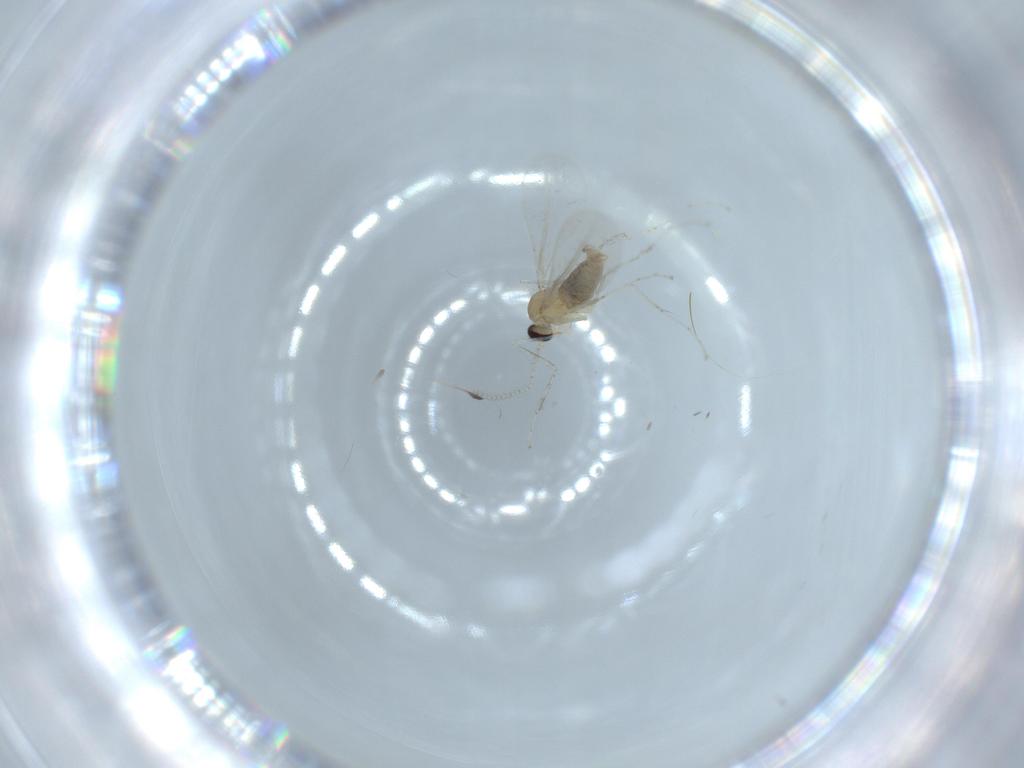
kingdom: Animalia
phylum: Arthropoda
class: Insecta
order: Diptera
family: Cecidomyiidae
